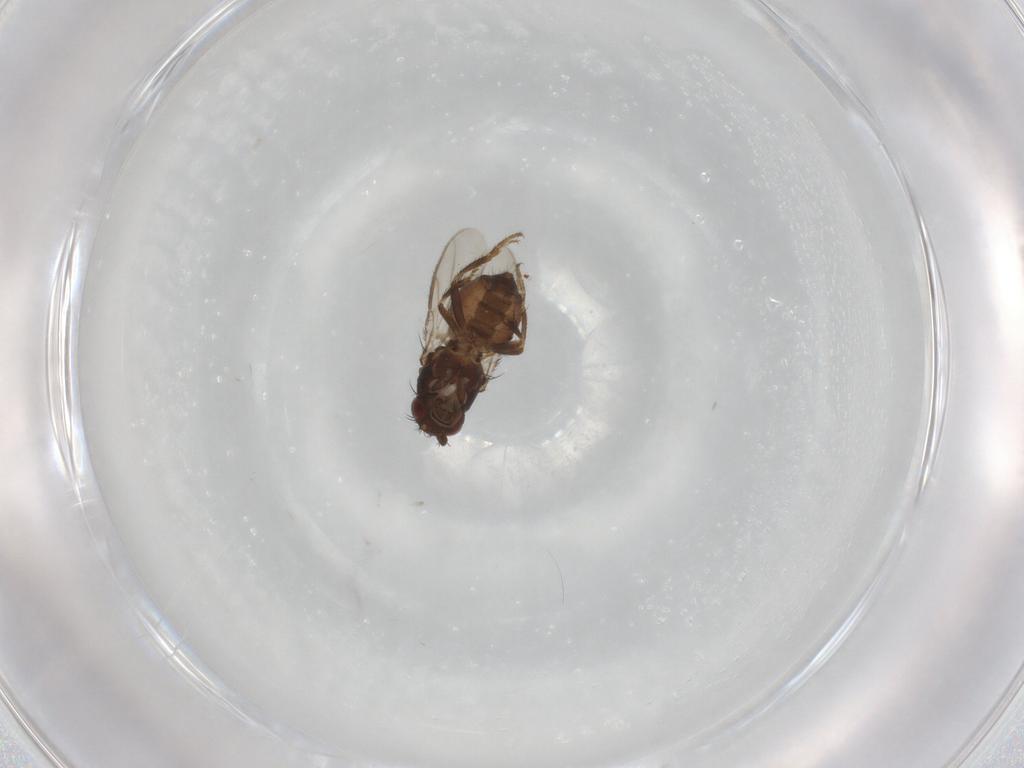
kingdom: Animalia
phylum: Arthropoda
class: Insecta
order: Diptera
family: Sphaeroceridae
